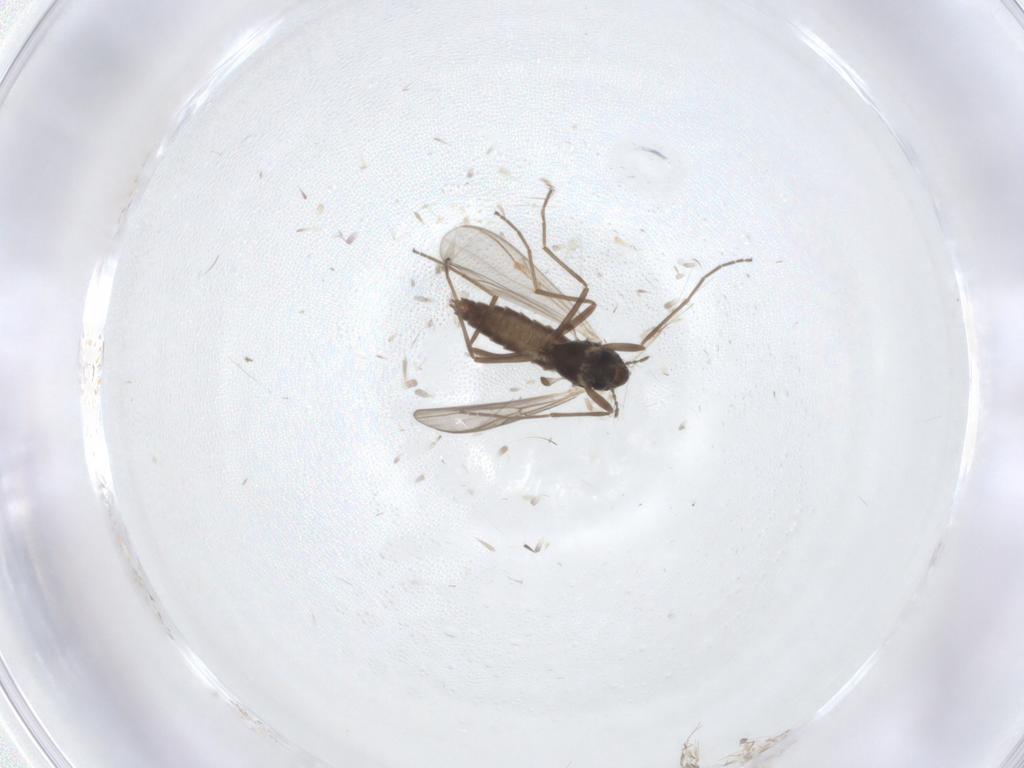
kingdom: Animalia
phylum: Arthropoda
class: Insecta
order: Diptera
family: Chironomidae
